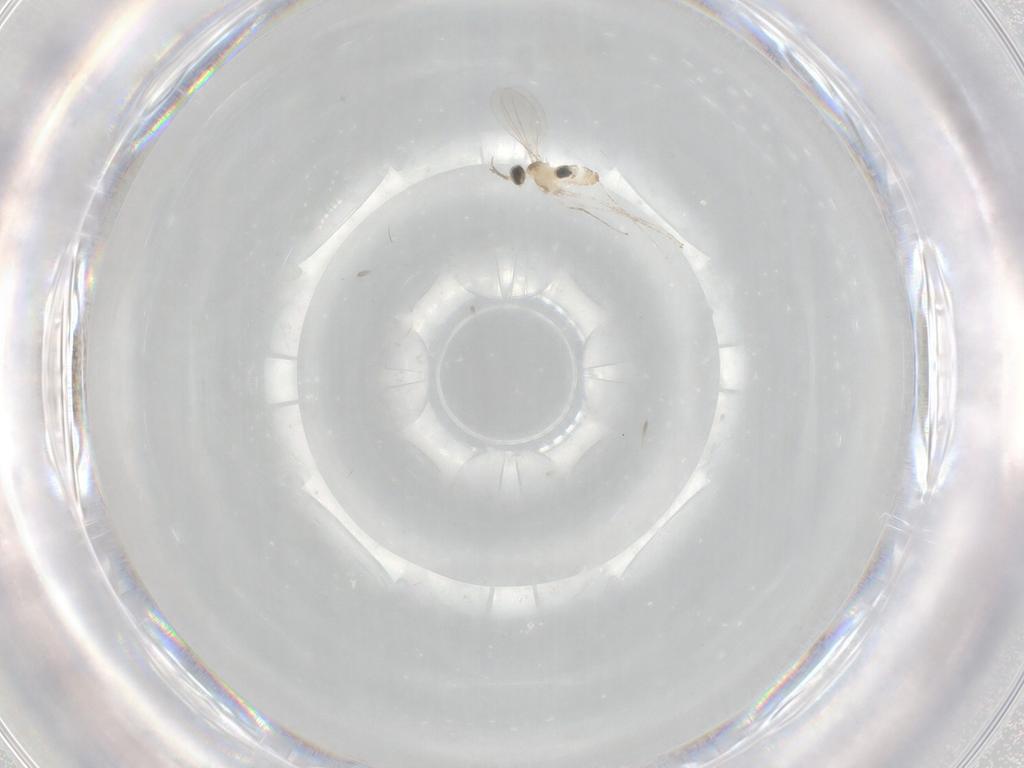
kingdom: Animalia
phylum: Arthropoda
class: Insecta
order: Diptera
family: Cecidomyiidae
